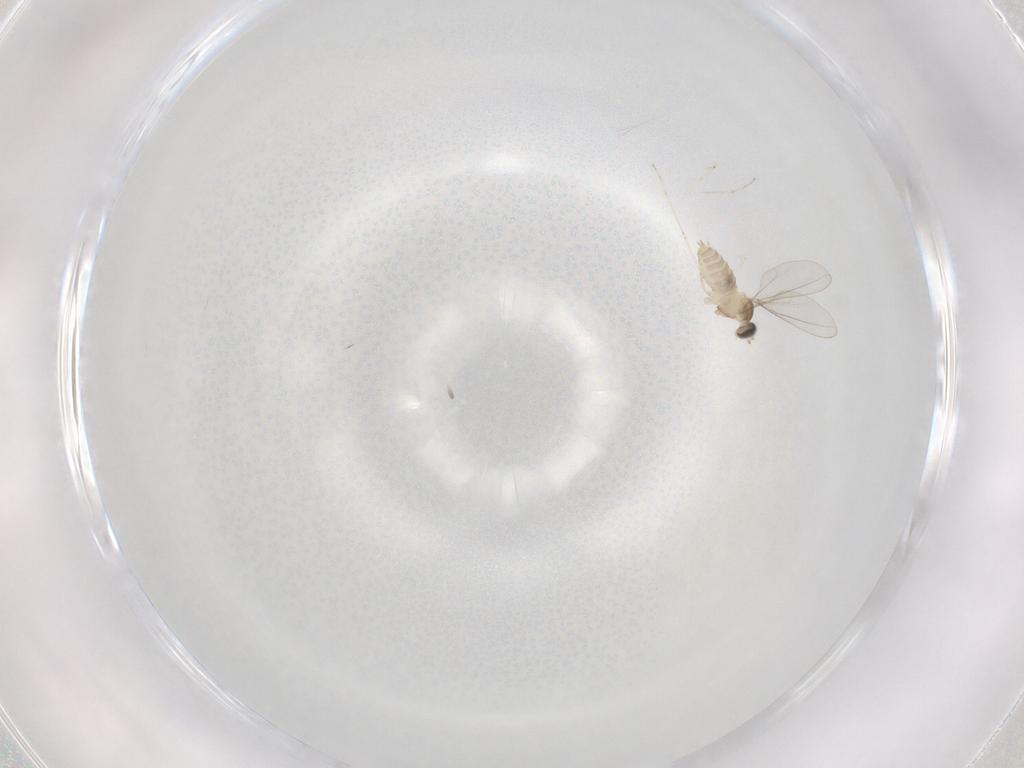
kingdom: Animalia
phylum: Arthropoda
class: Insecta
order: Diptera
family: Cecidomyiidae
